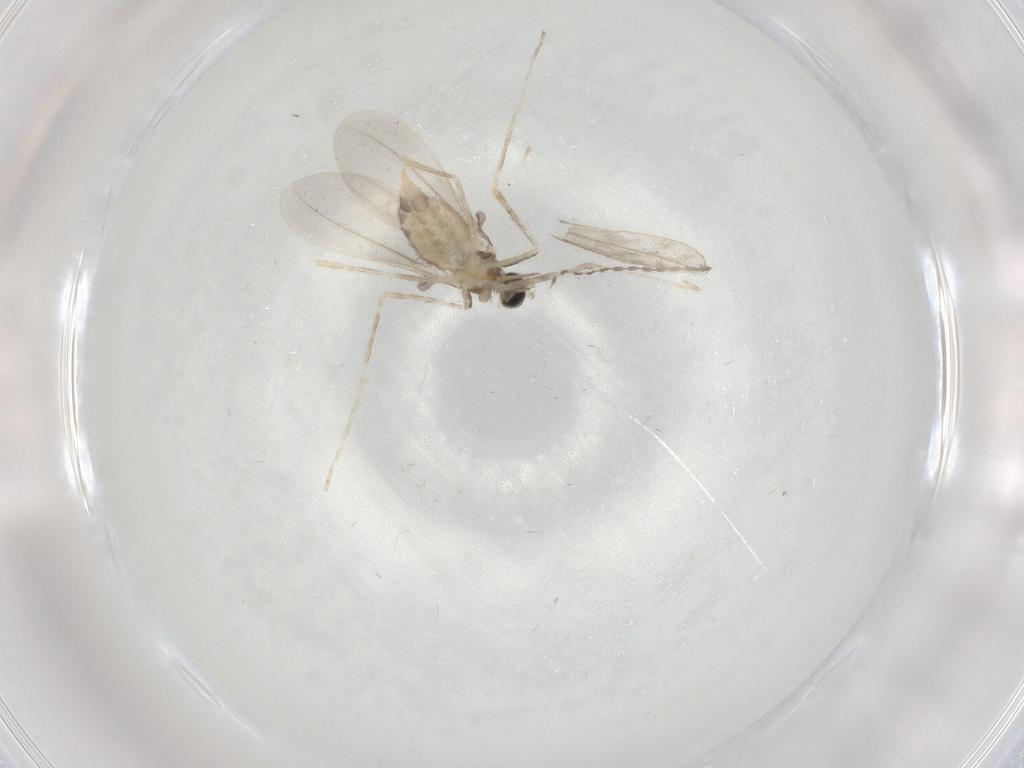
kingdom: Animalia
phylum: Arthropoda
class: Insecta
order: Diptera
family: Cecidomyiidae
